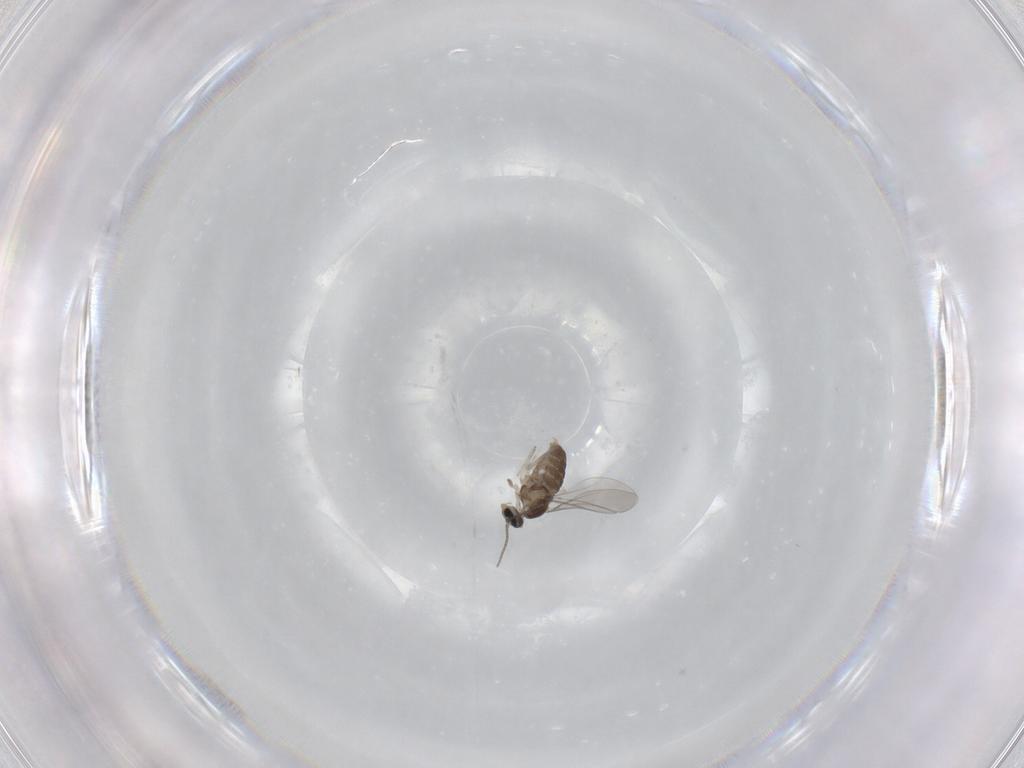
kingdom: Animalia
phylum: Arthropoda
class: Insecta
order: Diptera
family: Cecidomyiidae
